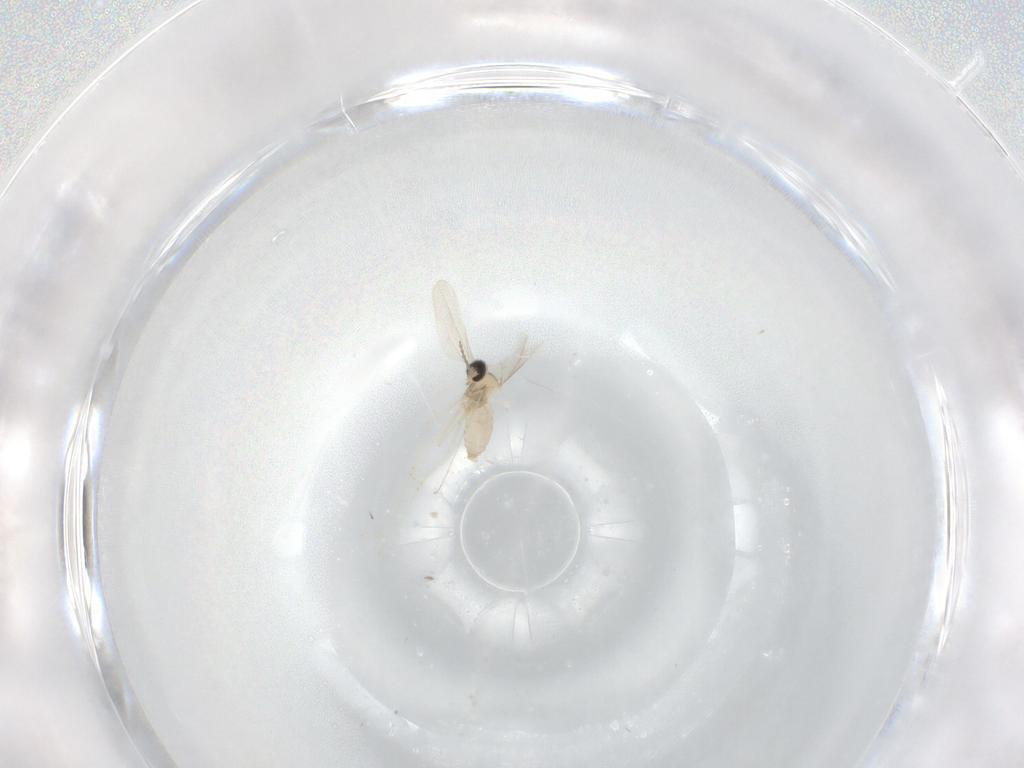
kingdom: Animalia
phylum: Arthropoda
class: Insecta
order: Diptera
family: Cecidomyiidae
